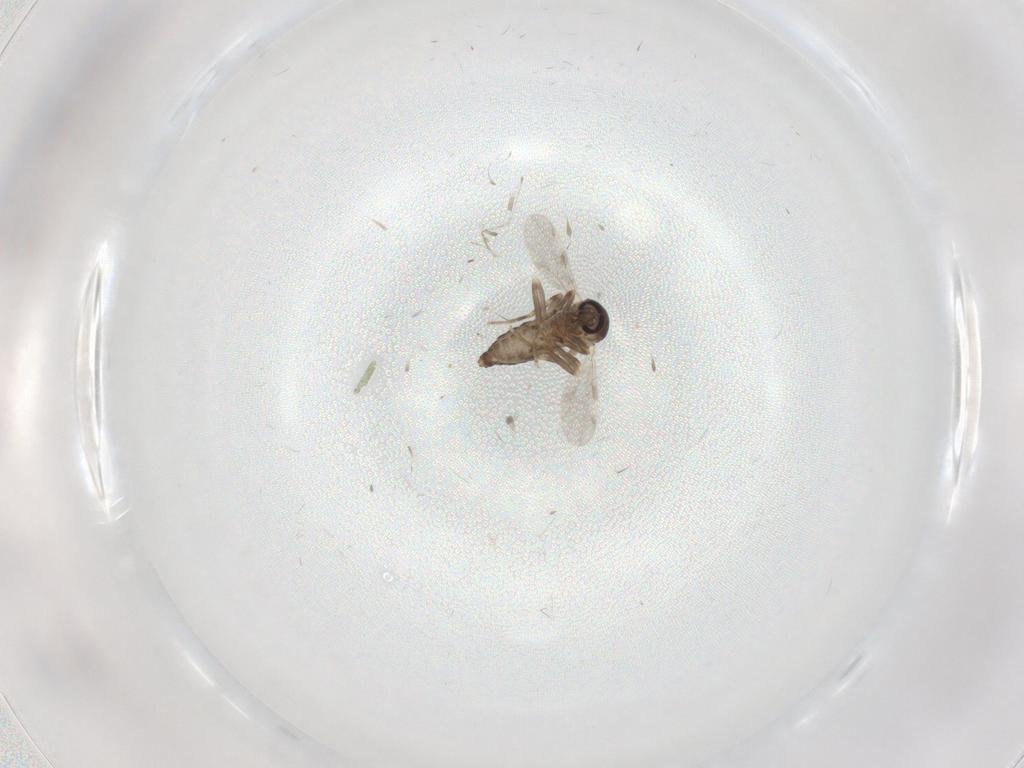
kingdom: Animalia
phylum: Arthropoda
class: Insecta
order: Diptera
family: Ceratopogonidae
